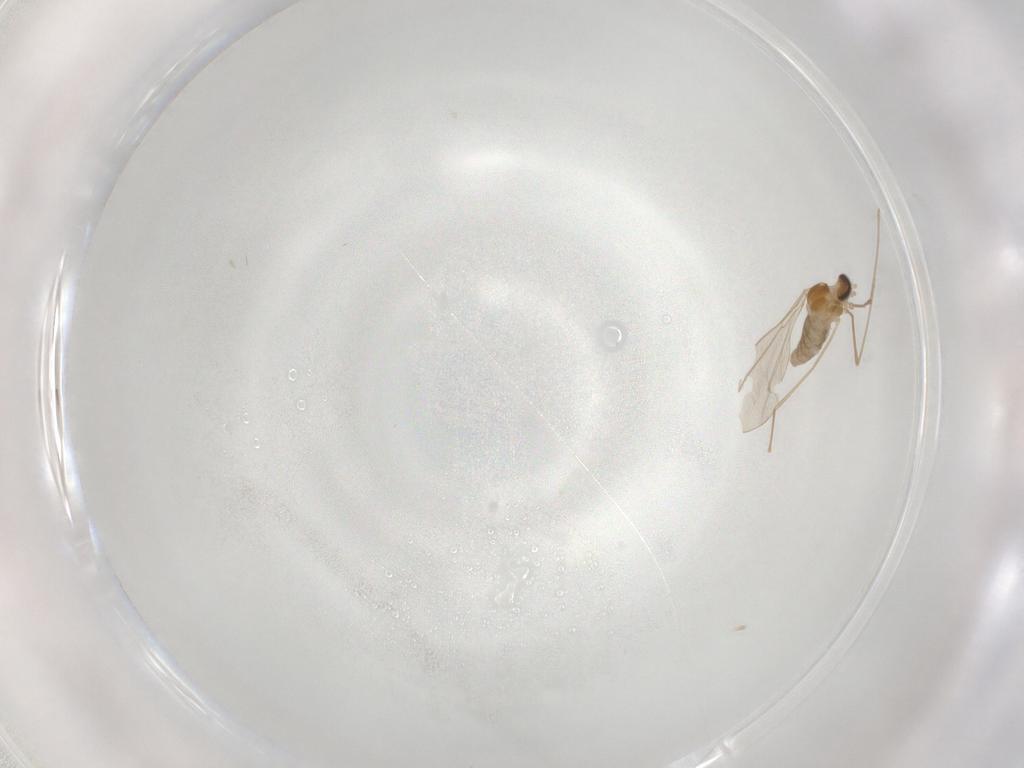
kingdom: Animalia
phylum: Arthropoda
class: Insecta
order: Diptera
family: Cecidomyiidae
